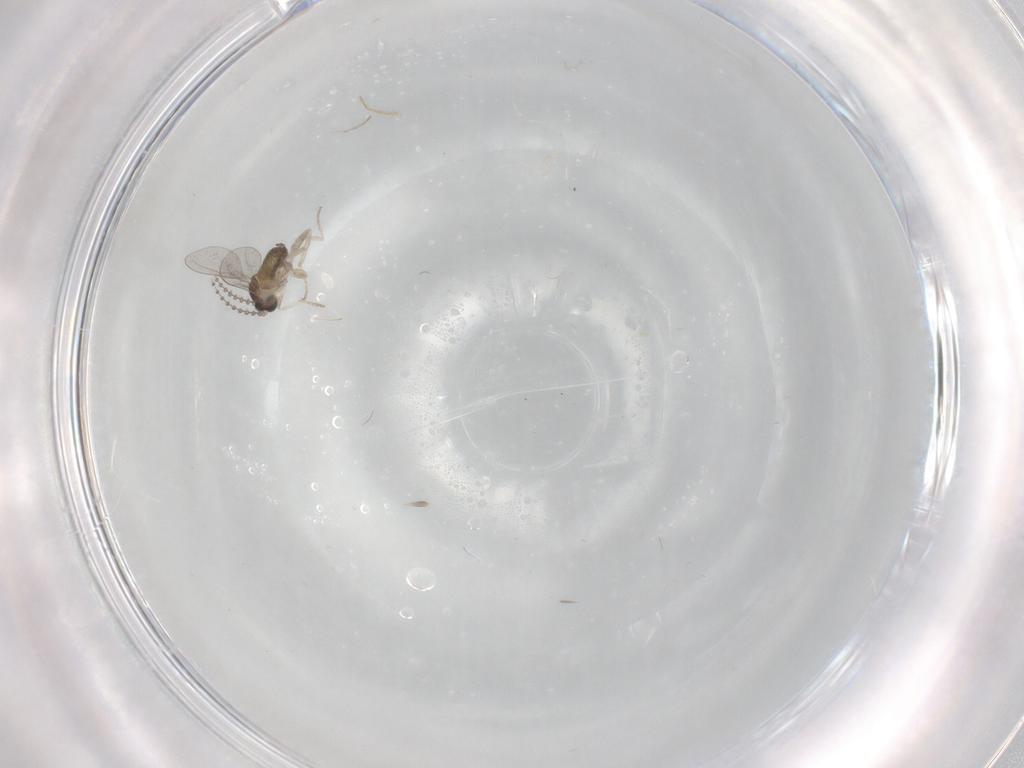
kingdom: Animalia
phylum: Arthropoda
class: Insecta
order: Diptera
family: Cecidomyiidae
